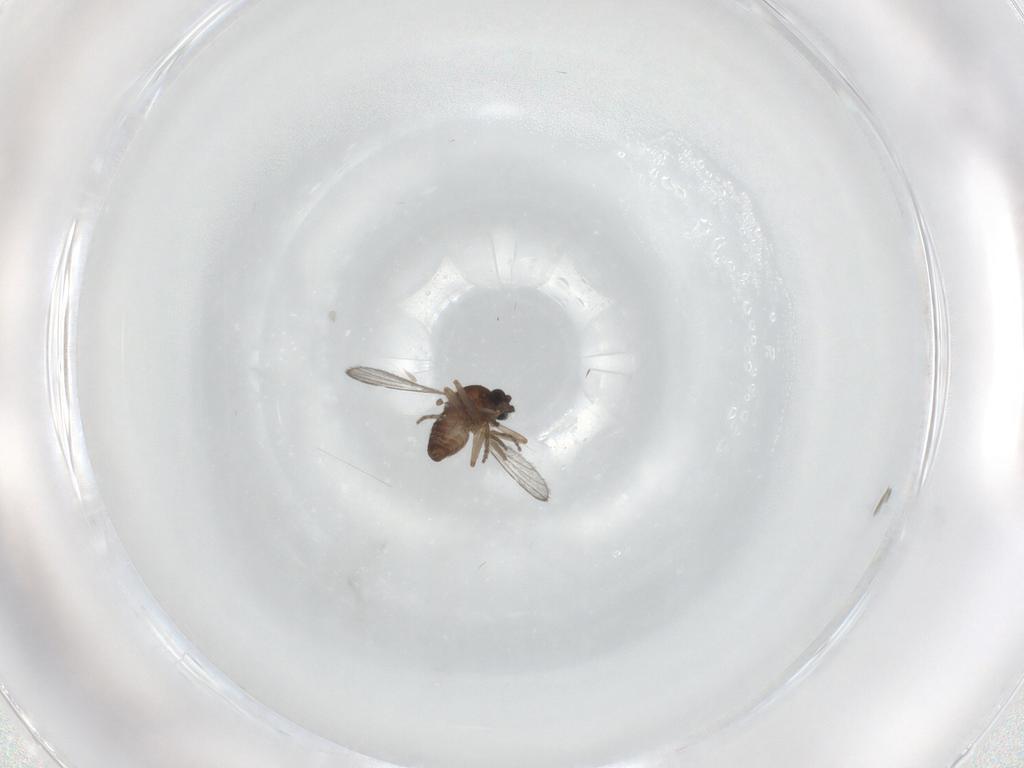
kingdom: Animalia
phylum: Arthropoda
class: Insecta
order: Diptera
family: Ceratopogonidae
